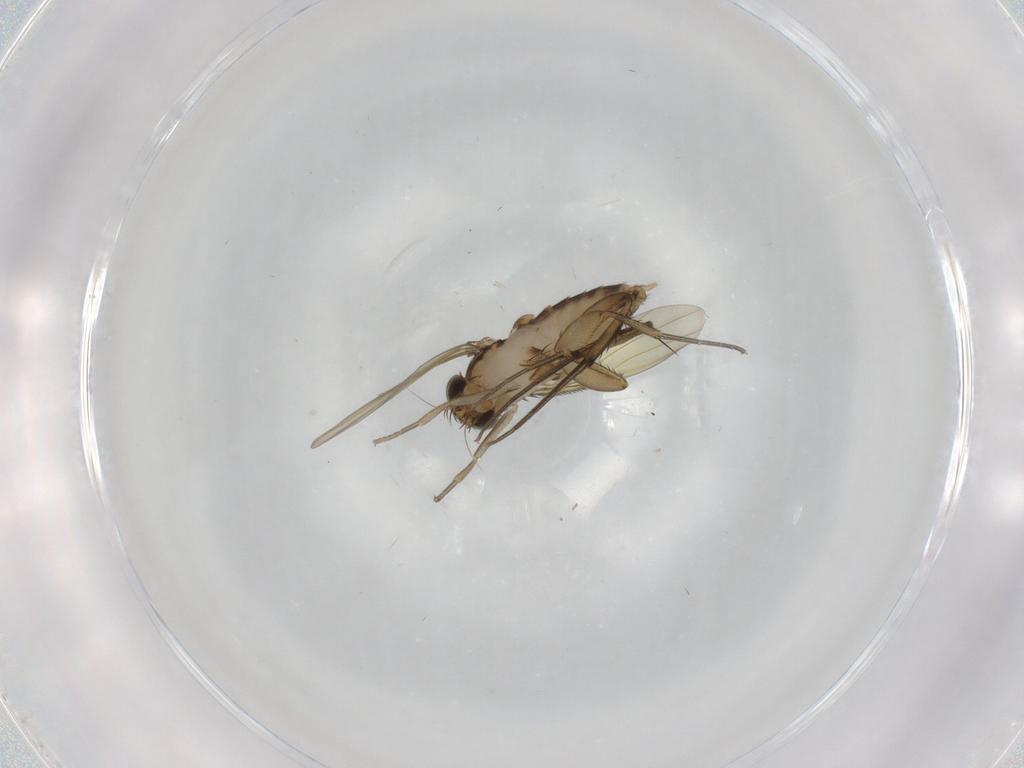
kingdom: Animalia
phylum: Arthropoda
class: Insecta
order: Diptera
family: Phoridae
